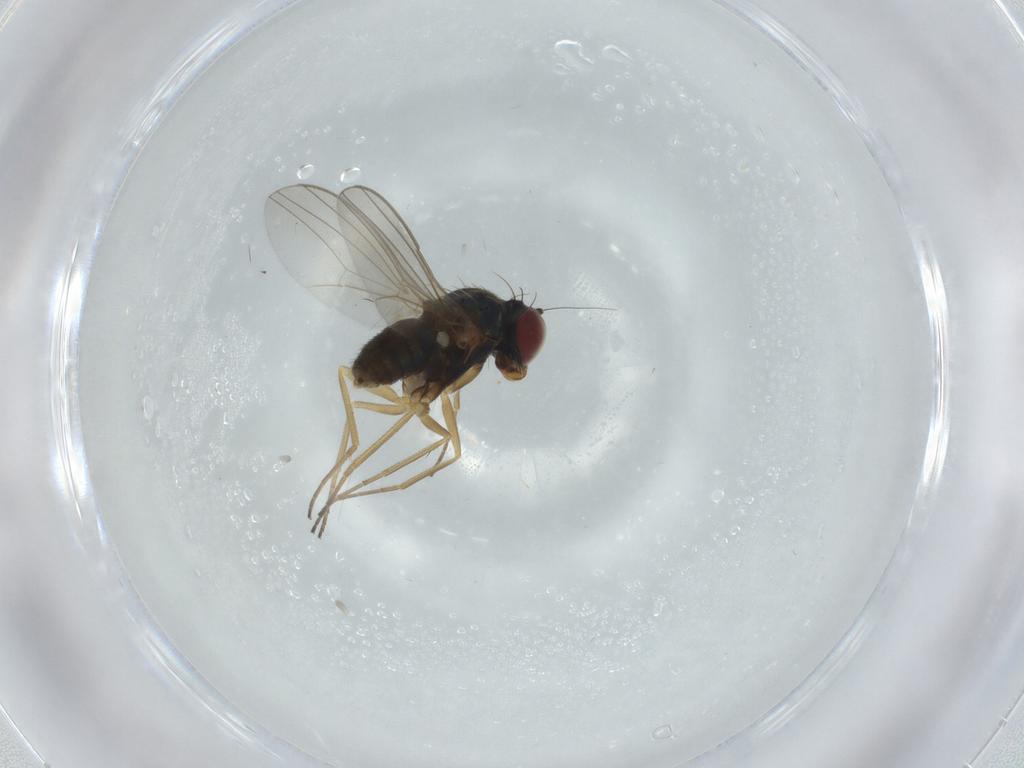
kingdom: Animalia
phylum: Arthropoda
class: Insecta
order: Diptera
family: Dolichopodidae
